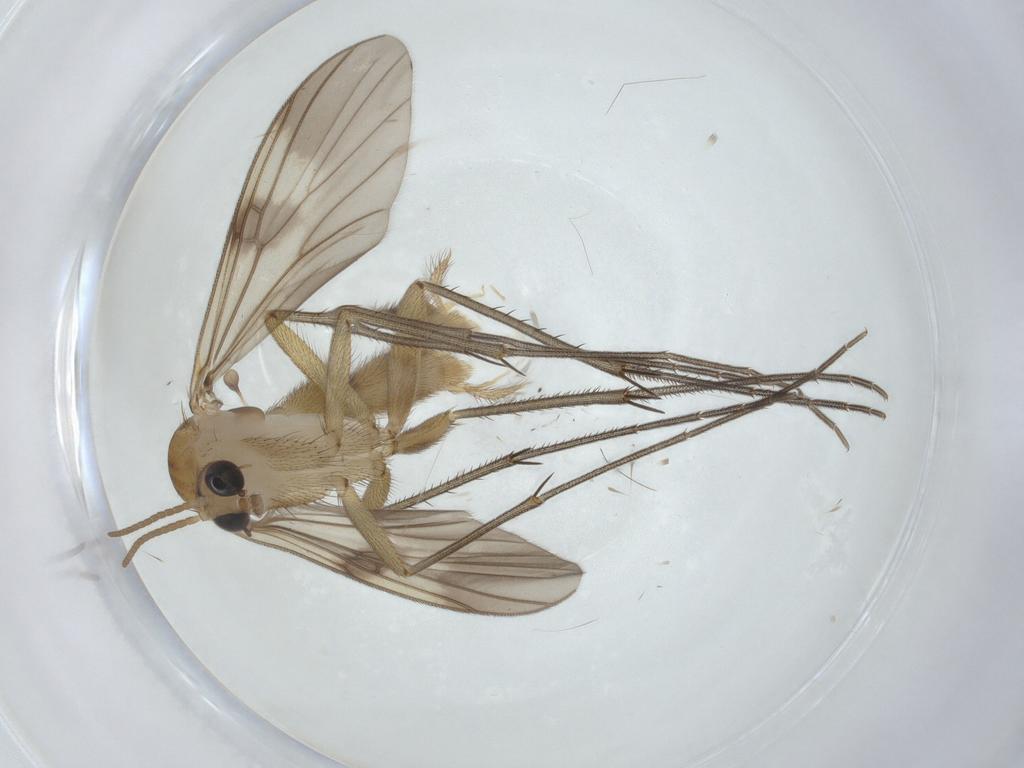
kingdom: Animalia
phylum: Arthropoda
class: Insecta
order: Diptera
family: Mycetophilidae
